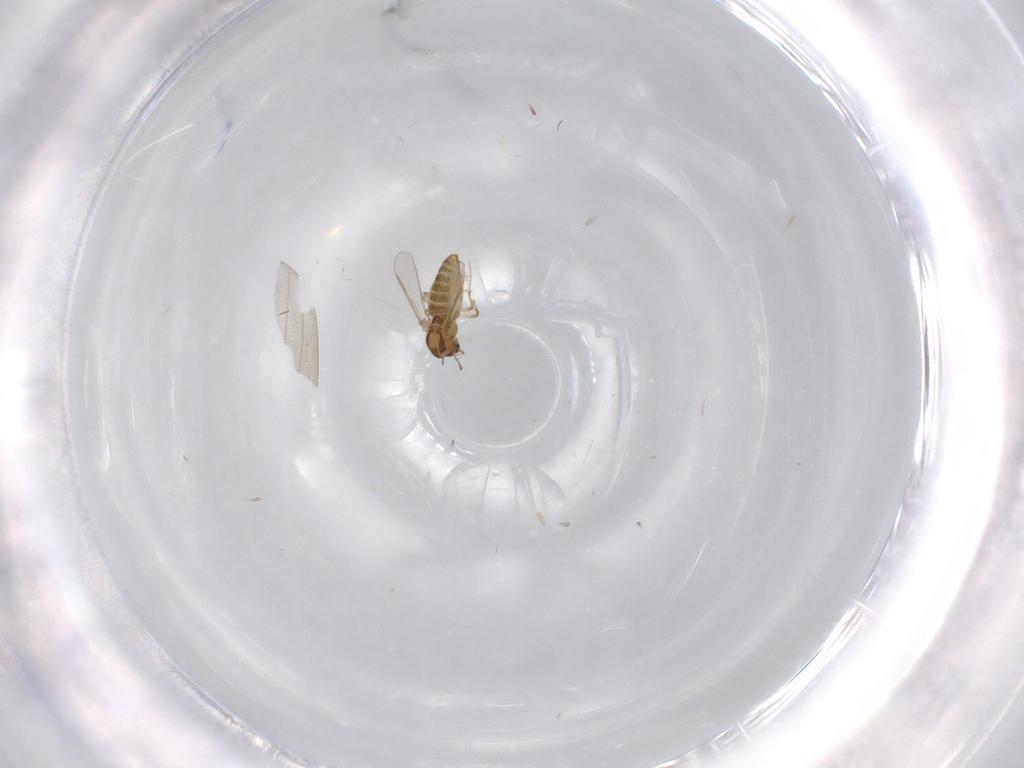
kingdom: Animalia
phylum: Arthropoda
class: Insecta
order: Diptera
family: Limoniidae
